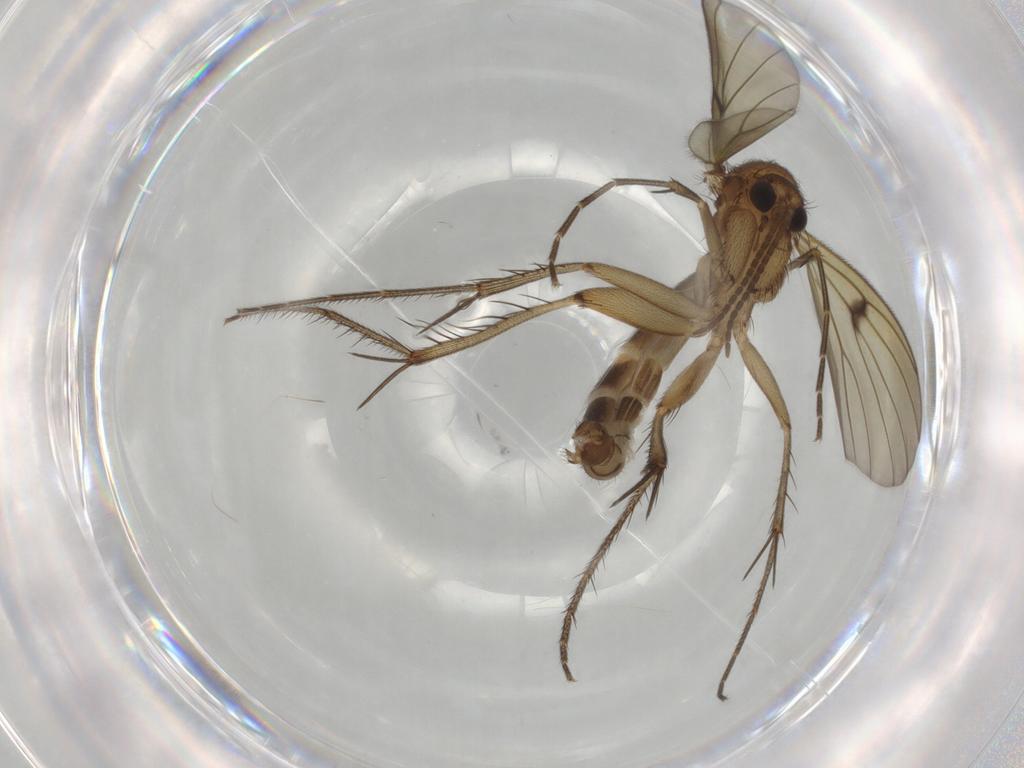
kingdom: Animalia
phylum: Arthropoda
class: Insecta
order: Diptera
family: Mycetophilidae
